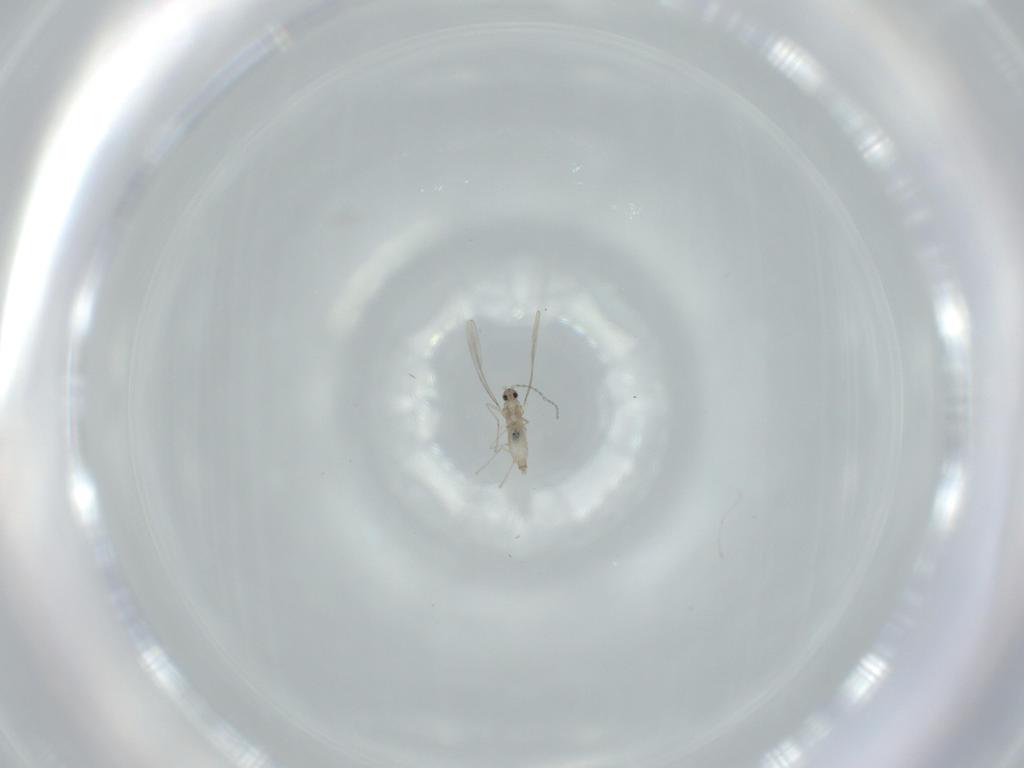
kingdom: Animalia
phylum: Arthropoda
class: Insecta
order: Diptera
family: Cecidomyiidae
